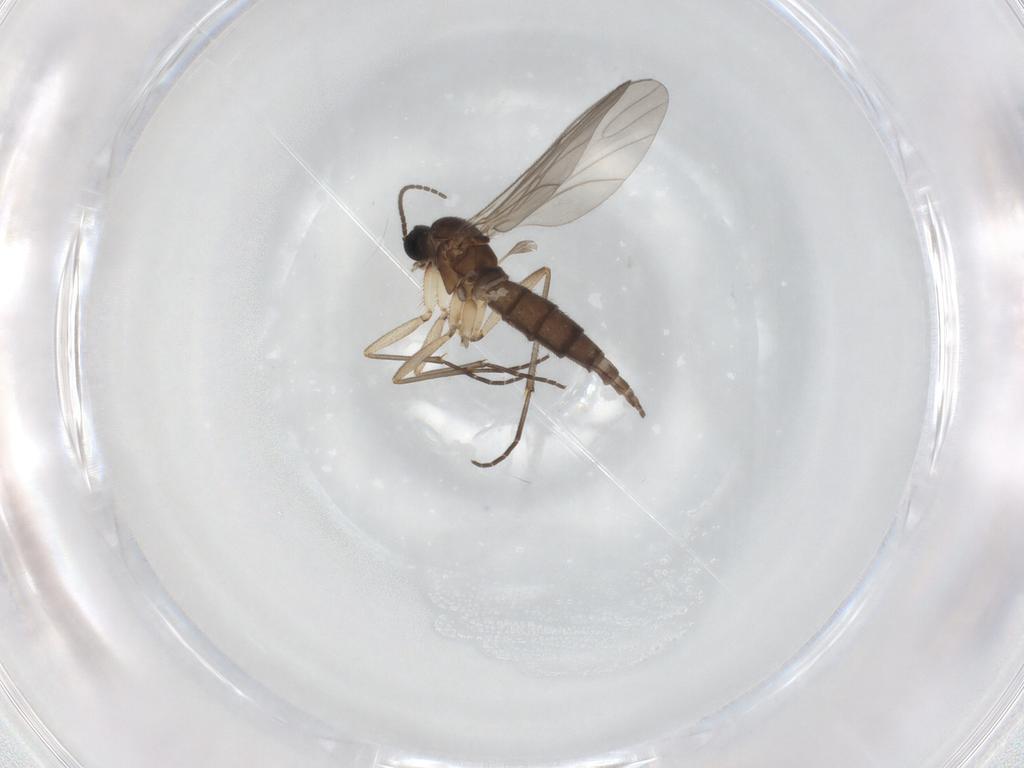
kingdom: Animalia
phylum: Arthropoda
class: Insecta
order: Diptera
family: Sciaridae
